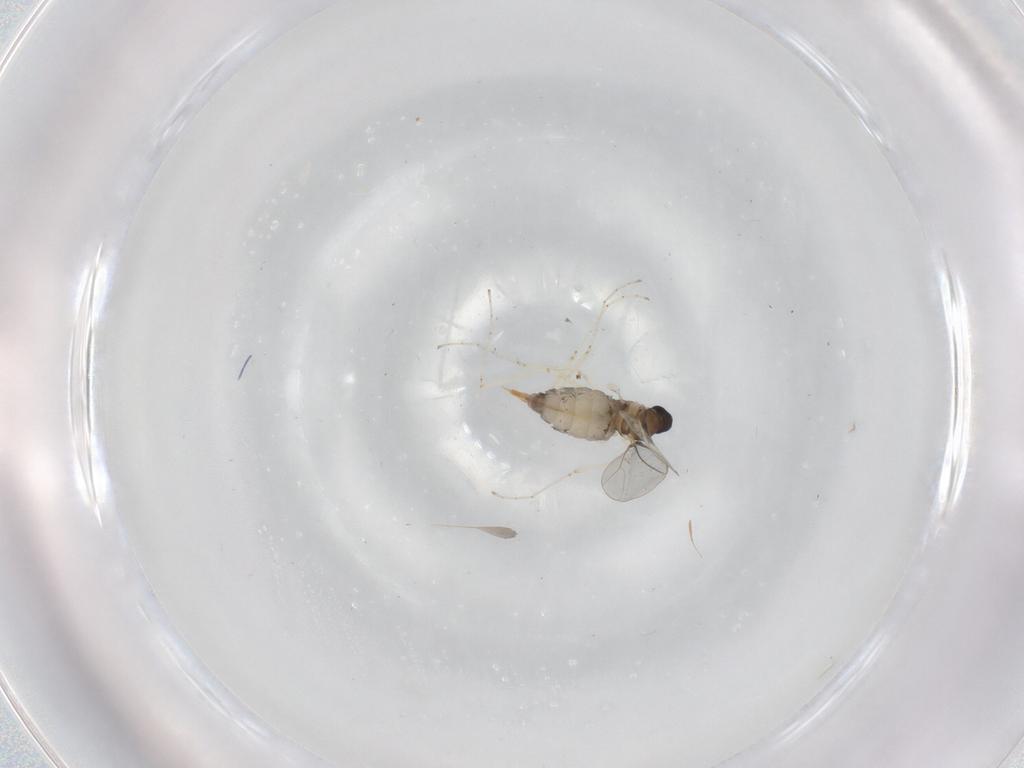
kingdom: Animalia
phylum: Arthropoda
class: Insecta
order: Diptera
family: Cecidomyiidae
